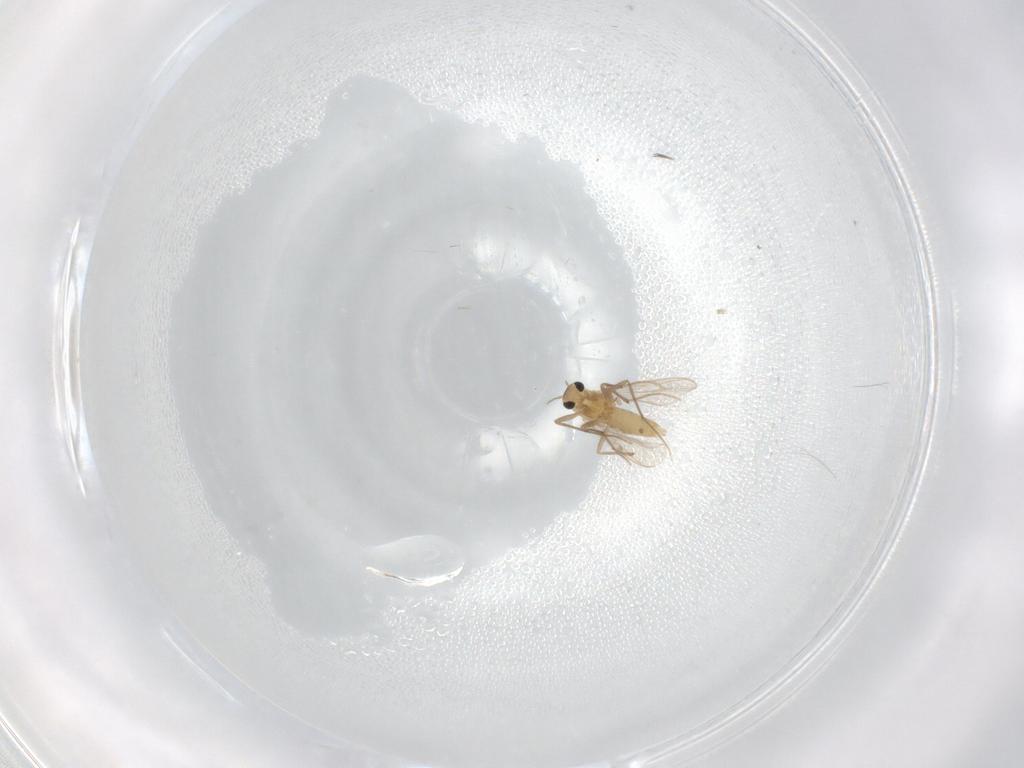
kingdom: Animalia
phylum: Arthropoda
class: Insecta
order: Diptera
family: Chironomidae
